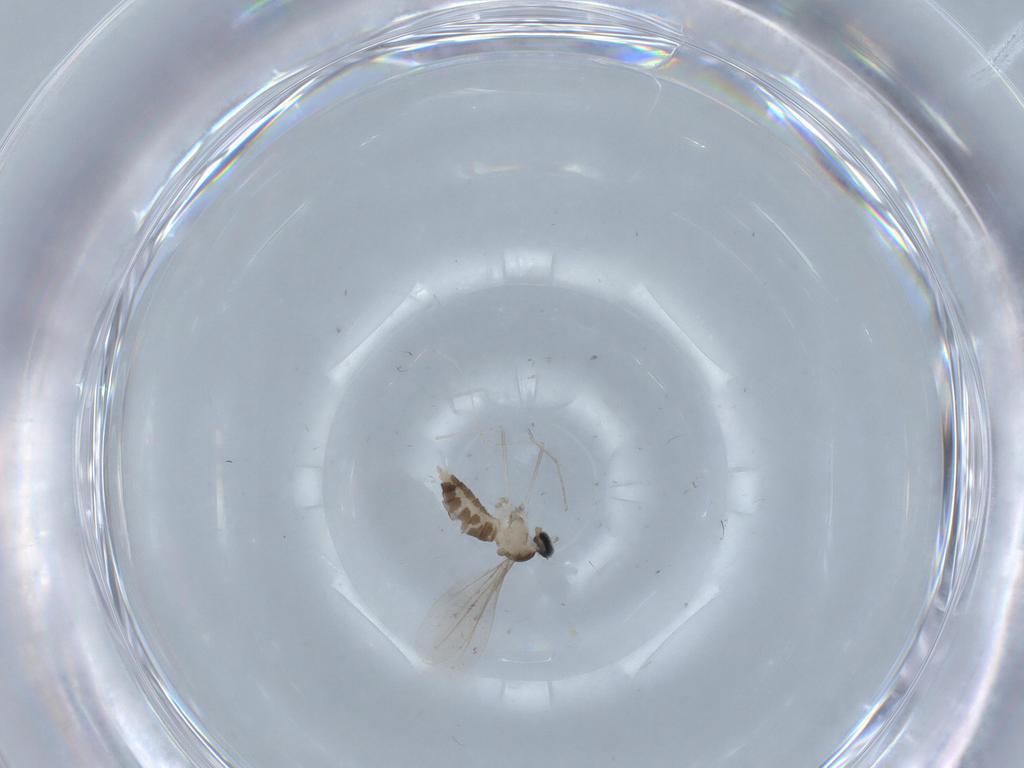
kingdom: Animalia
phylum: Arthropoda
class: Insecta
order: Diptera
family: Cecidomyiidae
